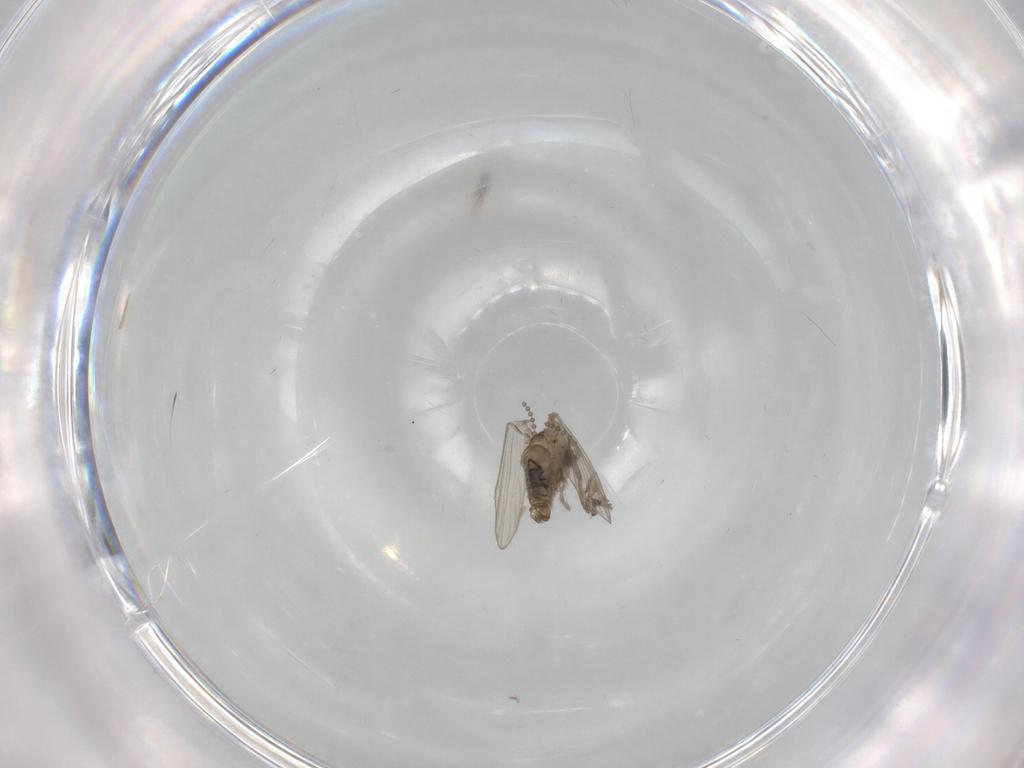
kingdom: Animalia
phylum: Arthropoda
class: Insecta
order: Diptera
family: Psychodidae
